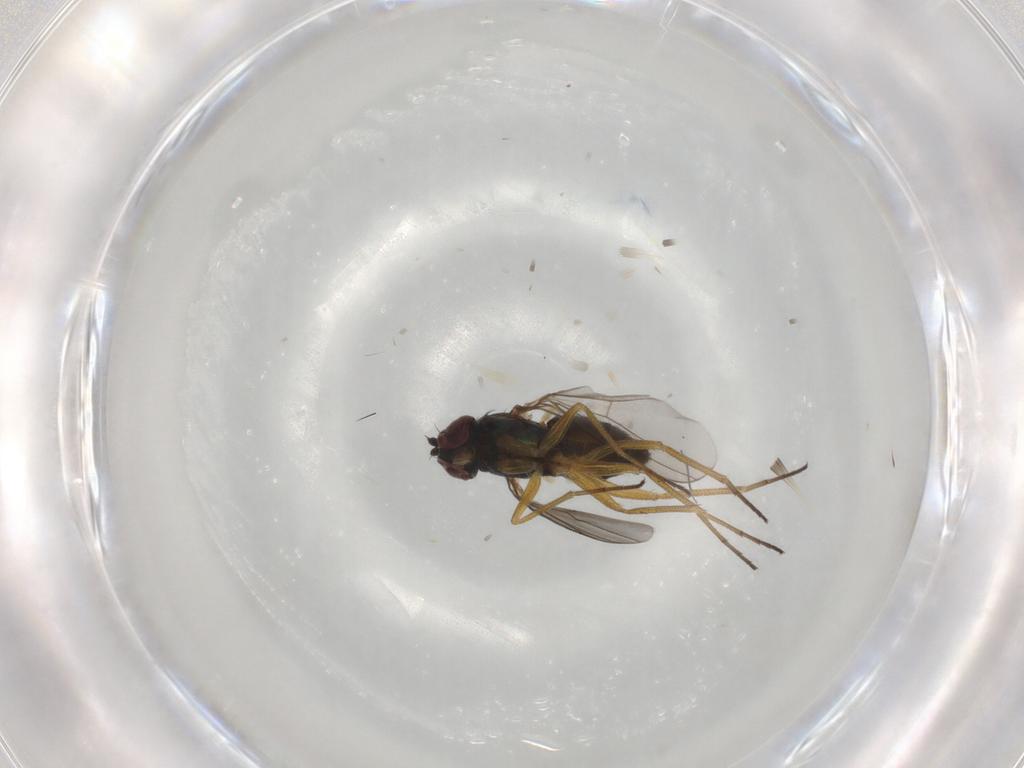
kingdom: Animalia
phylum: Arthropoda
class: Insecta
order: Diptera
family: Dolichopodidae
